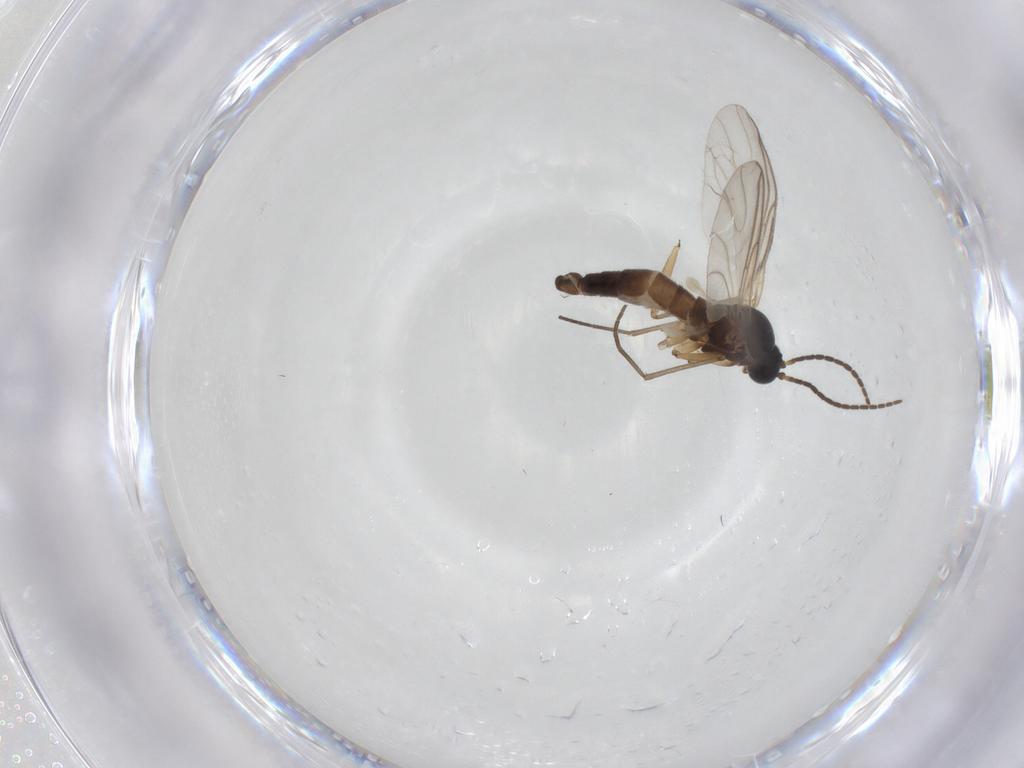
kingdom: Animalia
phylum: Arthropoda
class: Insecta
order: Diptera
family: Sciaridae
